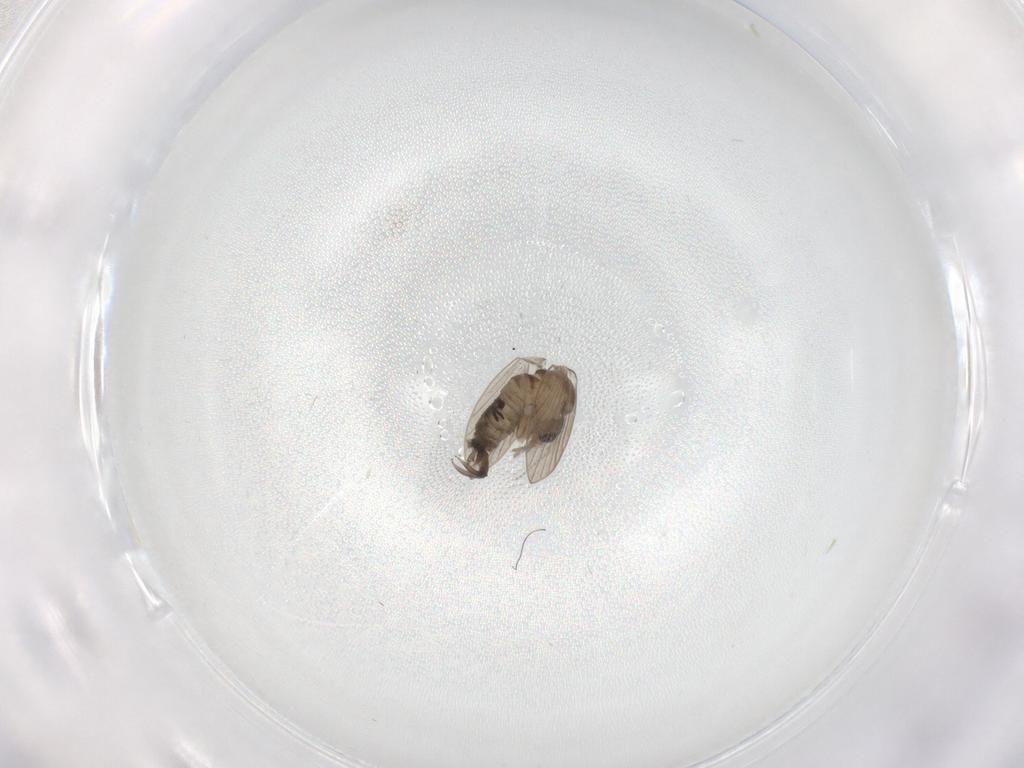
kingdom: Animalia
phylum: Arthropoda
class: Insecta
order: Diptera
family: Psychodidae
